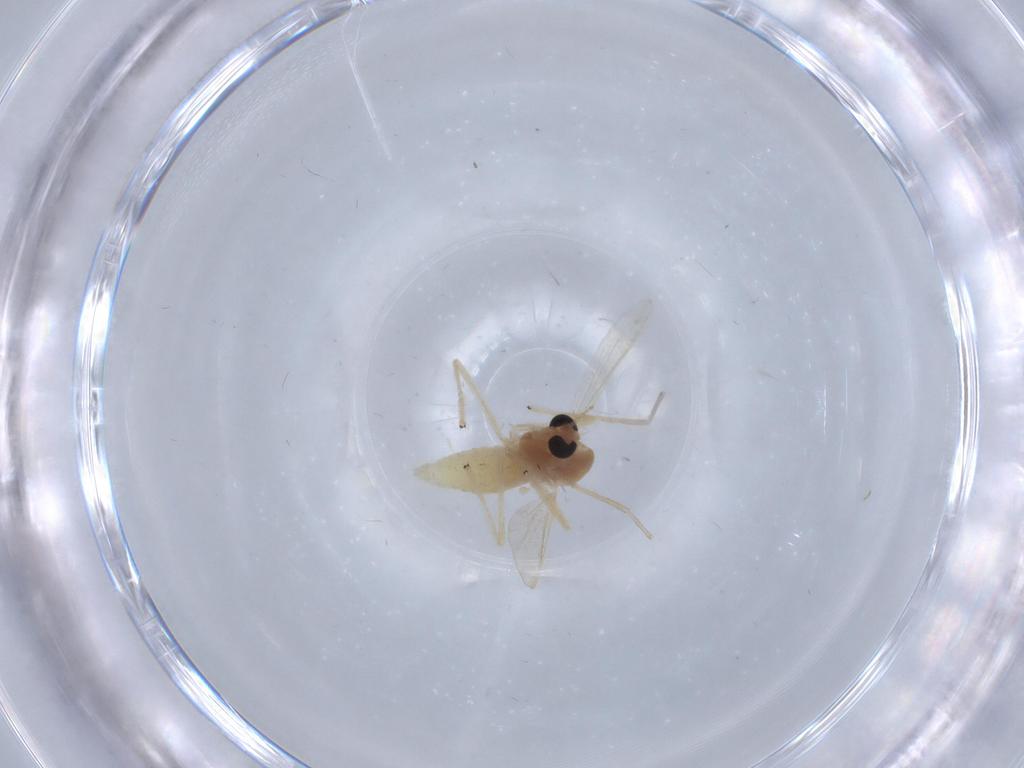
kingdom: Animalia
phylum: Arthropoda
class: Insecta
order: Diptera
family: Chironomidae
